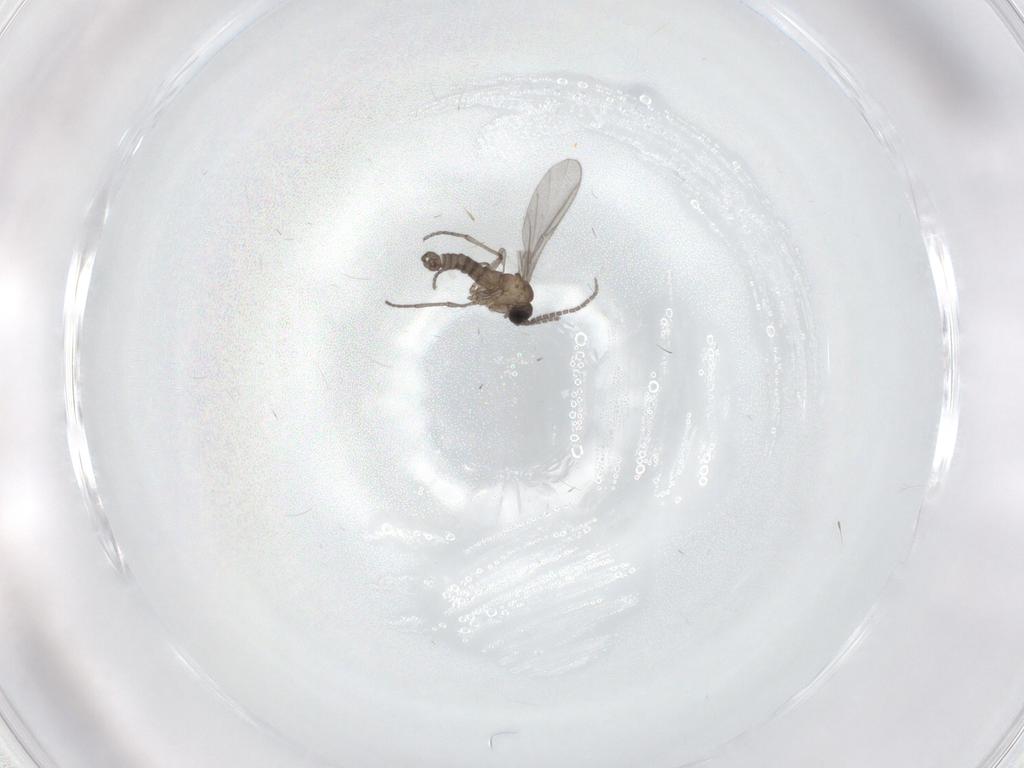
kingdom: Animalia
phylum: Arthropoda
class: Insecta
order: Diptera
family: Sciaridae
